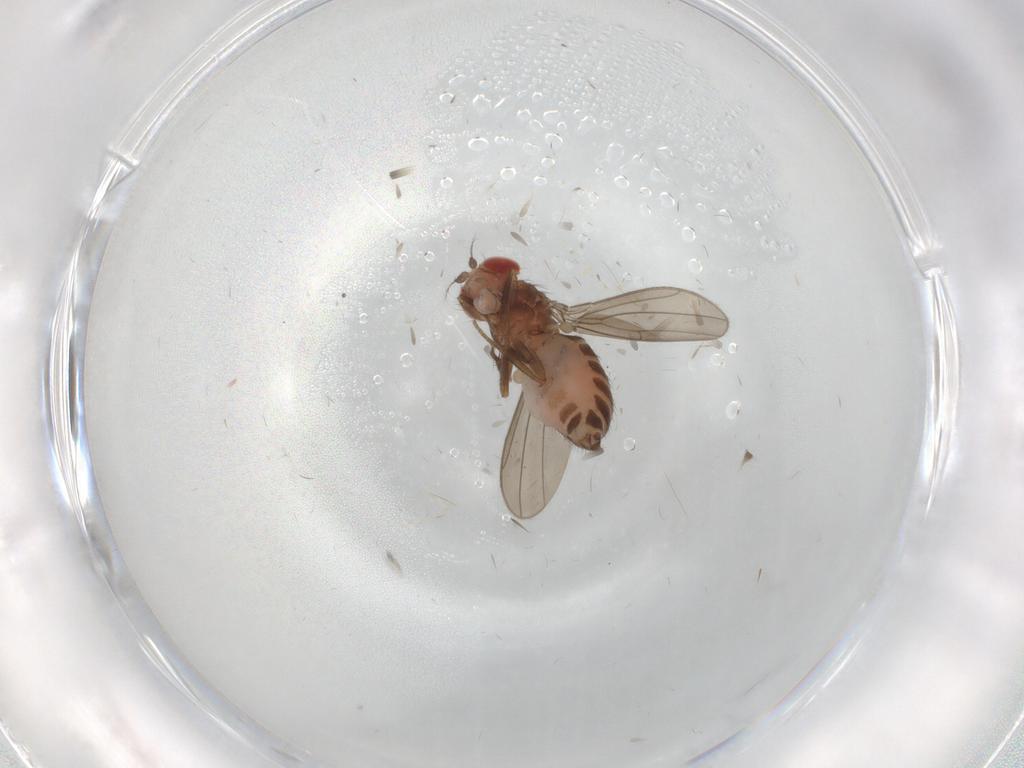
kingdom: Animalia
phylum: Arthropoda
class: Insecta
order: Diptera
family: Drosophilidae
